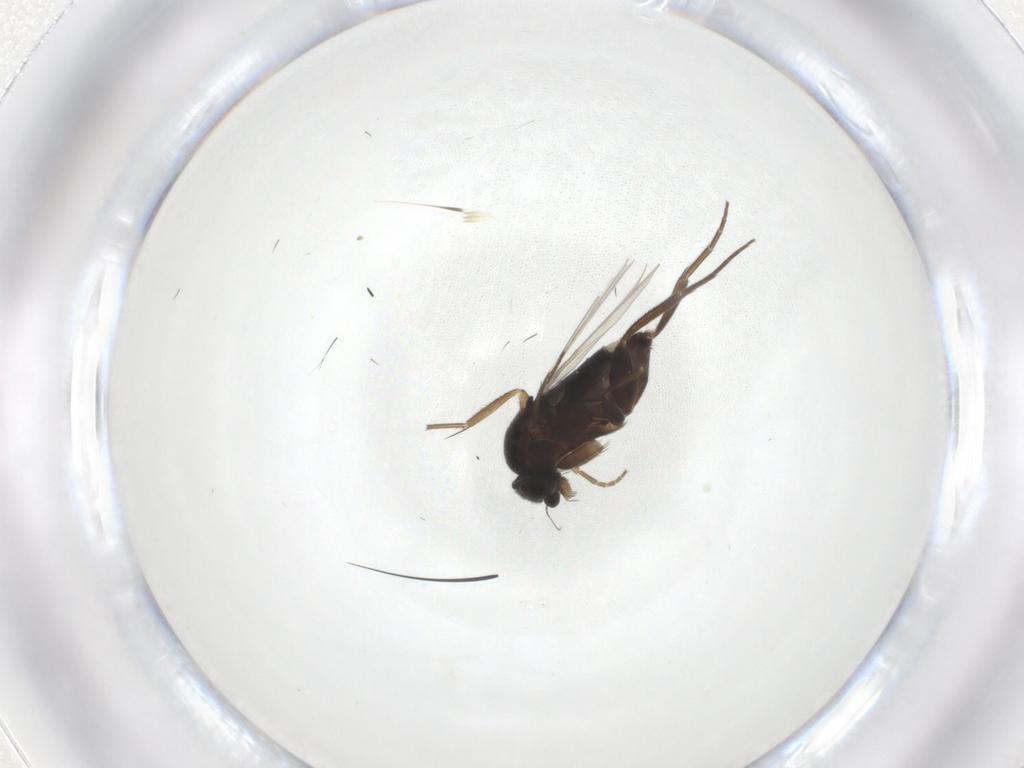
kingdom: Animalia
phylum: Arthropoda
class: Insecta
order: Diptera
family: Phoridae
